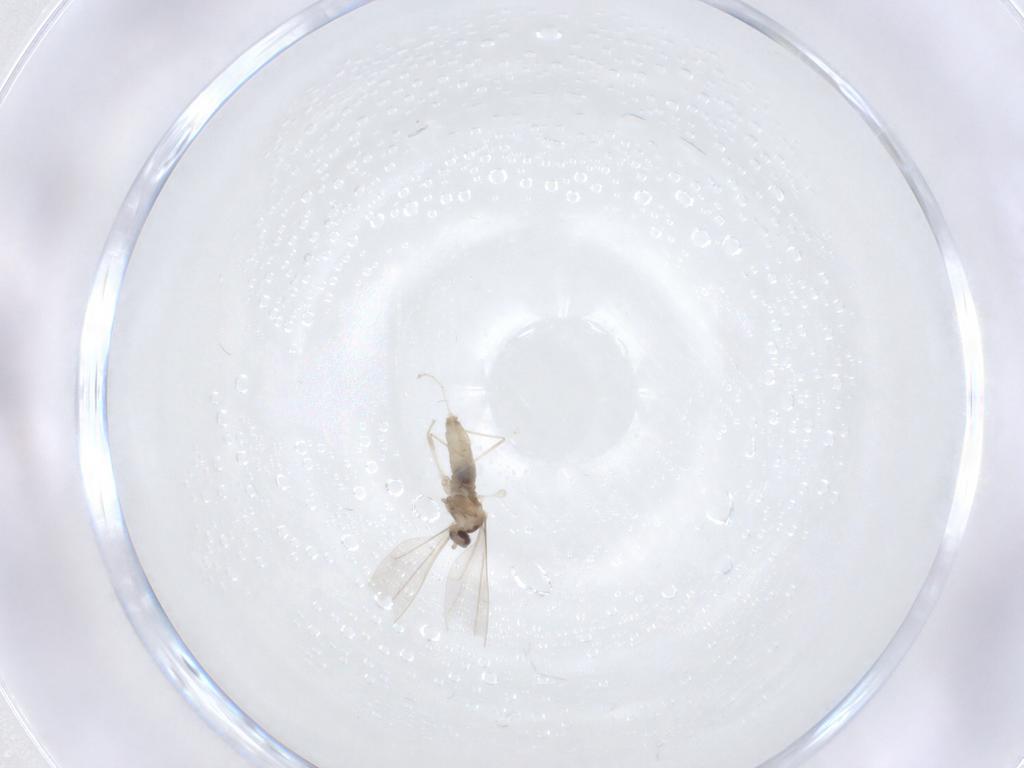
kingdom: Animalia
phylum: Arthropoda
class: Insecta
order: Diptera
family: Cecidomyiidae
